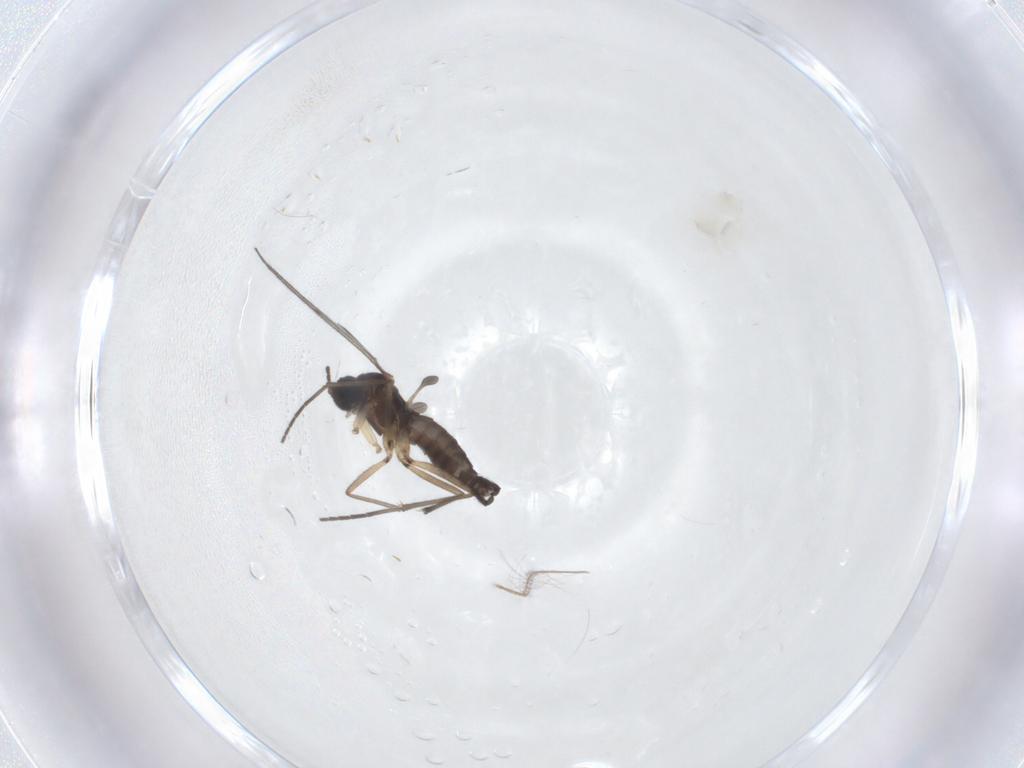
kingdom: Animalia
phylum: Arthropoda
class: Insecta
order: Diptera
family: Sciaridae
